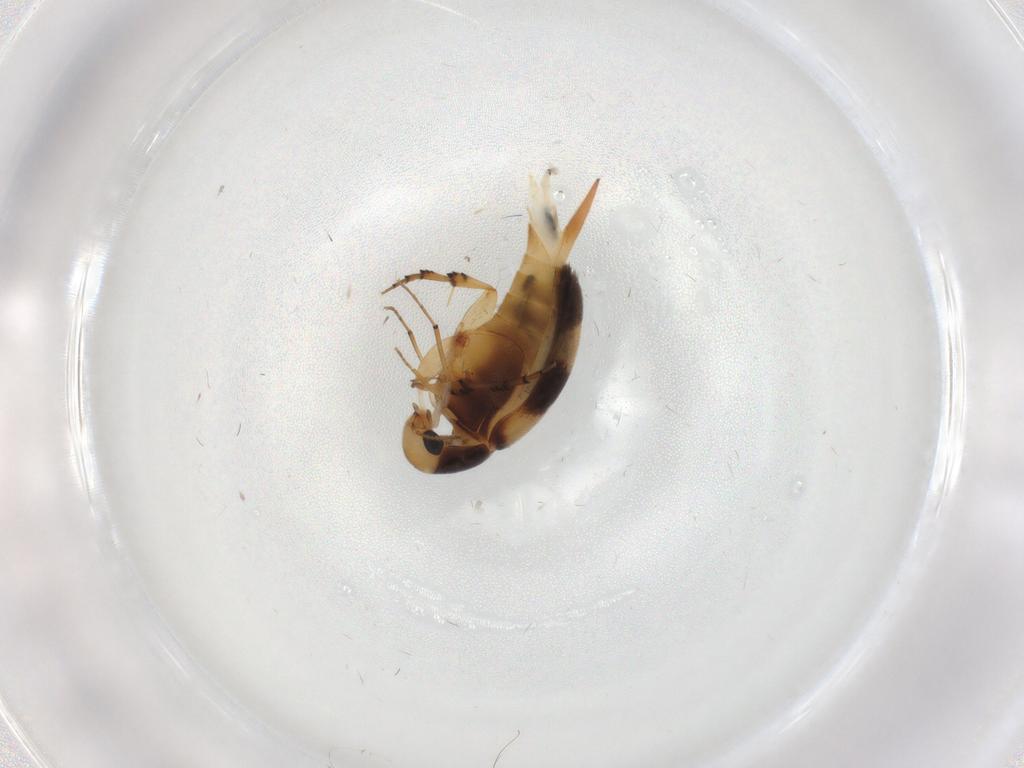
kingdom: Animalia
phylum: Arthropoda
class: Insecta
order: Coleoptera
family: Mordellidae
